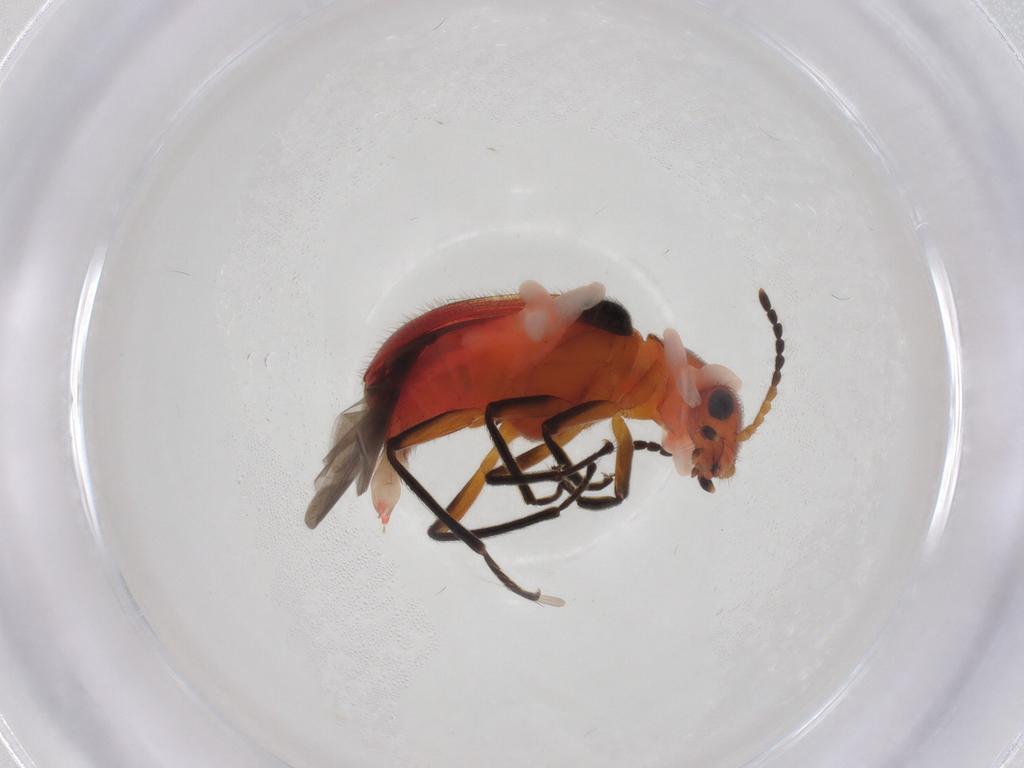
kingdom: Animalia
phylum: Arthropoda
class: Insecta
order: Coleoptera
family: Melyridae
